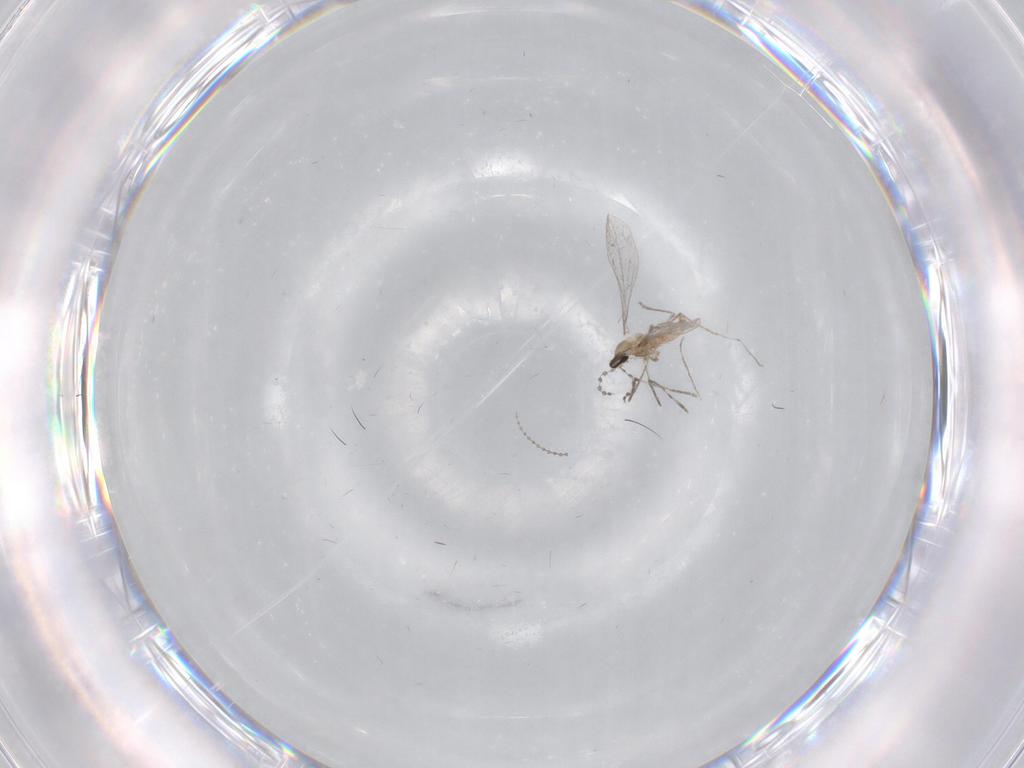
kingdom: Animalia
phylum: Arthropoda
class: Insecta
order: Diptera
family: Cecidomyiidae
